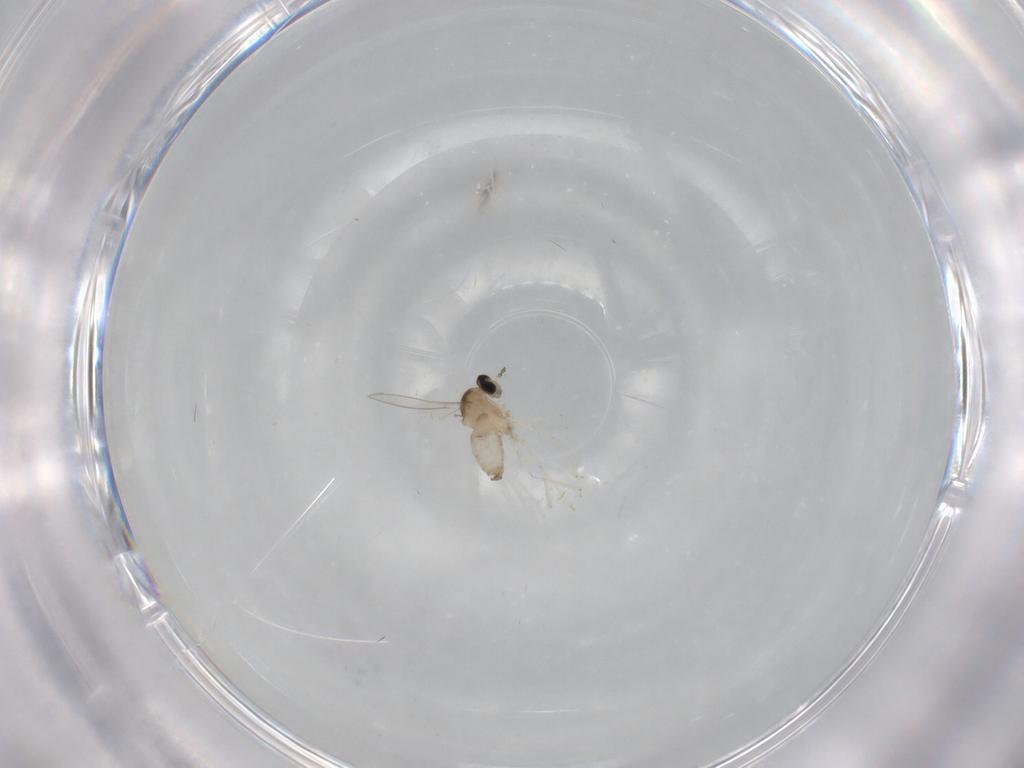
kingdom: Animalia
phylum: Arthropoda
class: Insecta
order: Diptera
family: Cecidomyiidae
